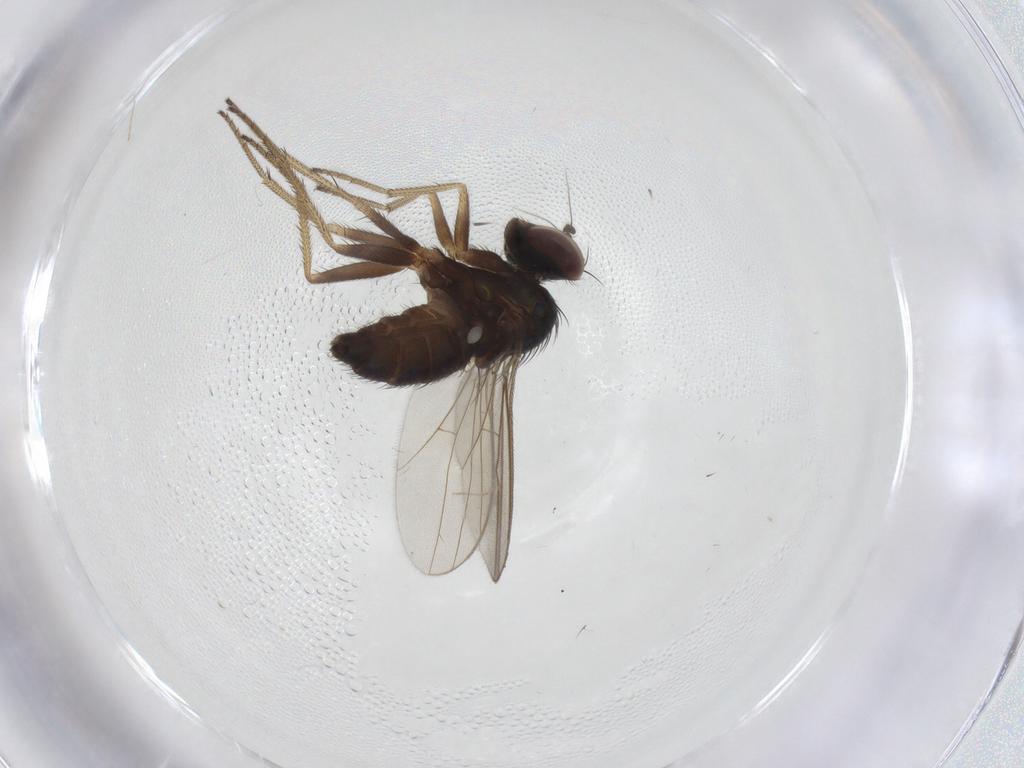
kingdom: Animalia
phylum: Arthropoda
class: Insecta
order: Diptera
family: Dolichopodidae
